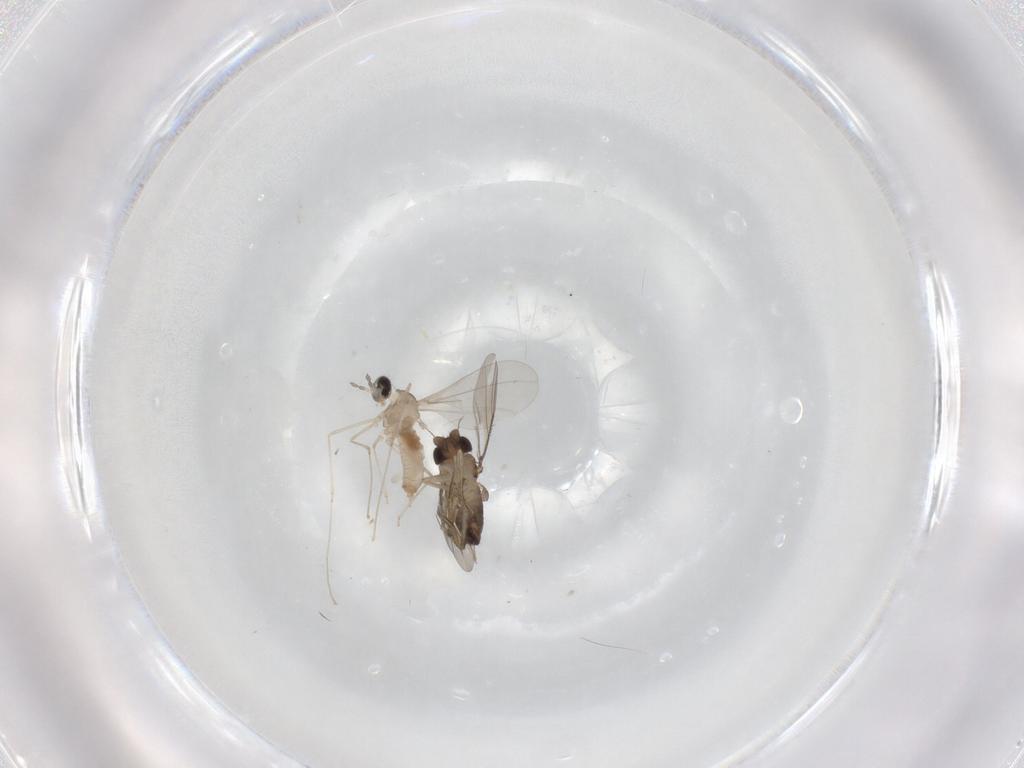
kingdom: Animalia
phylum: Arthropoda
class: Insecta
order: Diptera
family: Phoridae
